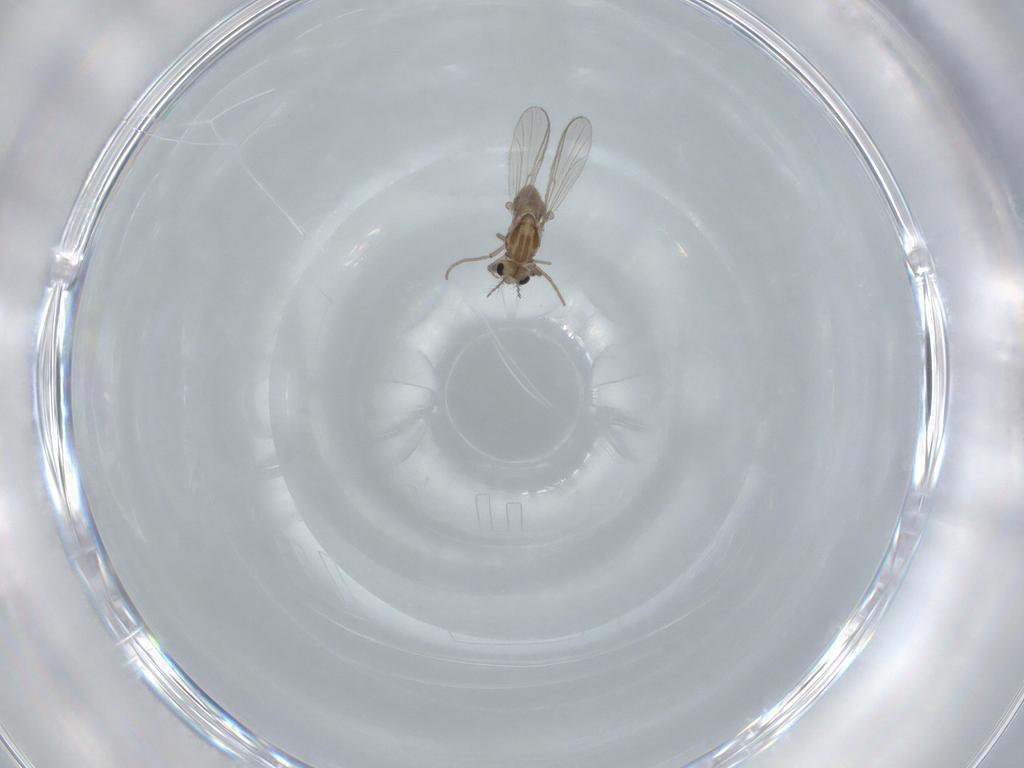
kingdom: Animalia
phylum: Arthropoda
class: Insecta
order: Diptera
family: Chironomidae
